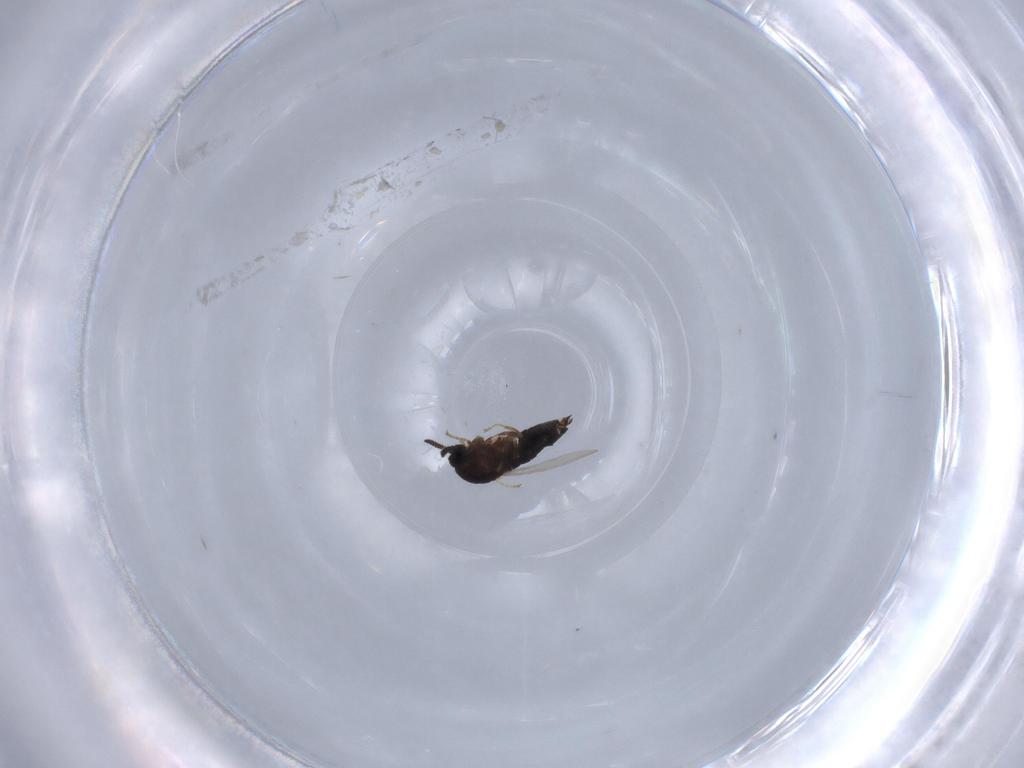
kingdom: Animalia
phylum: Arthropoda
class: Insecta
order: Diptera
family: Scatopsidae
